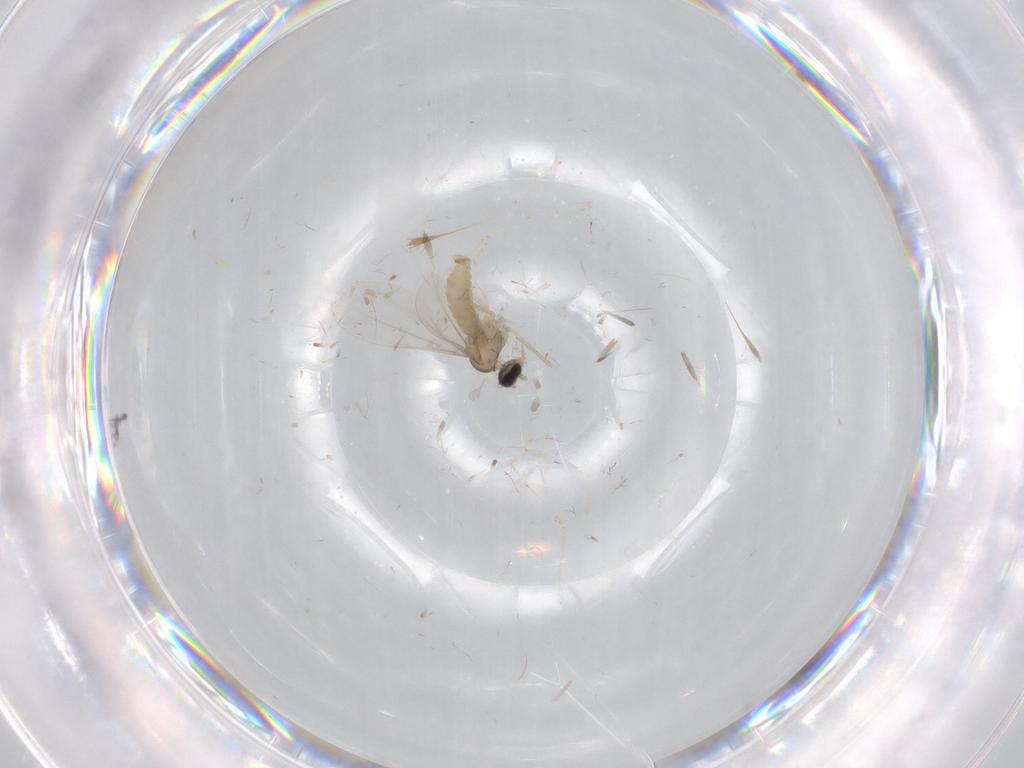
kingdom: Animalia
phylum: Arthropoda
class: Insecta
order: Diptera
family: Cecidomyiidae
